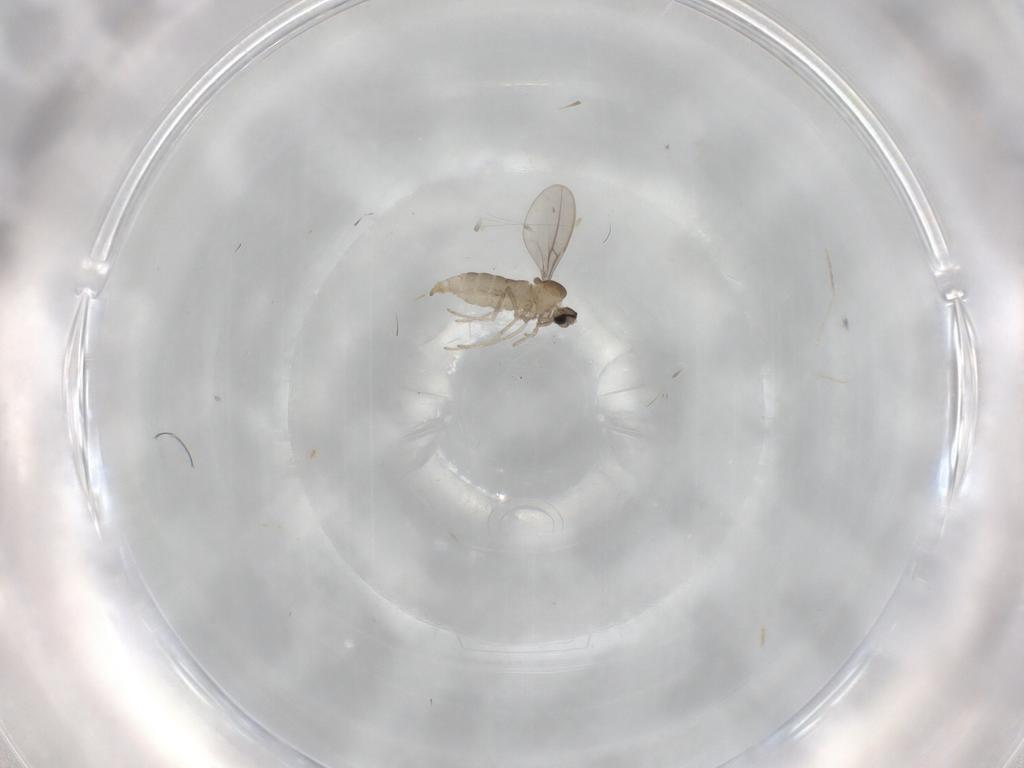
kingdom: Animalia
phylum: Arthropoda
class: Insecta
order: Diptera
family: Cecidomyiidae
